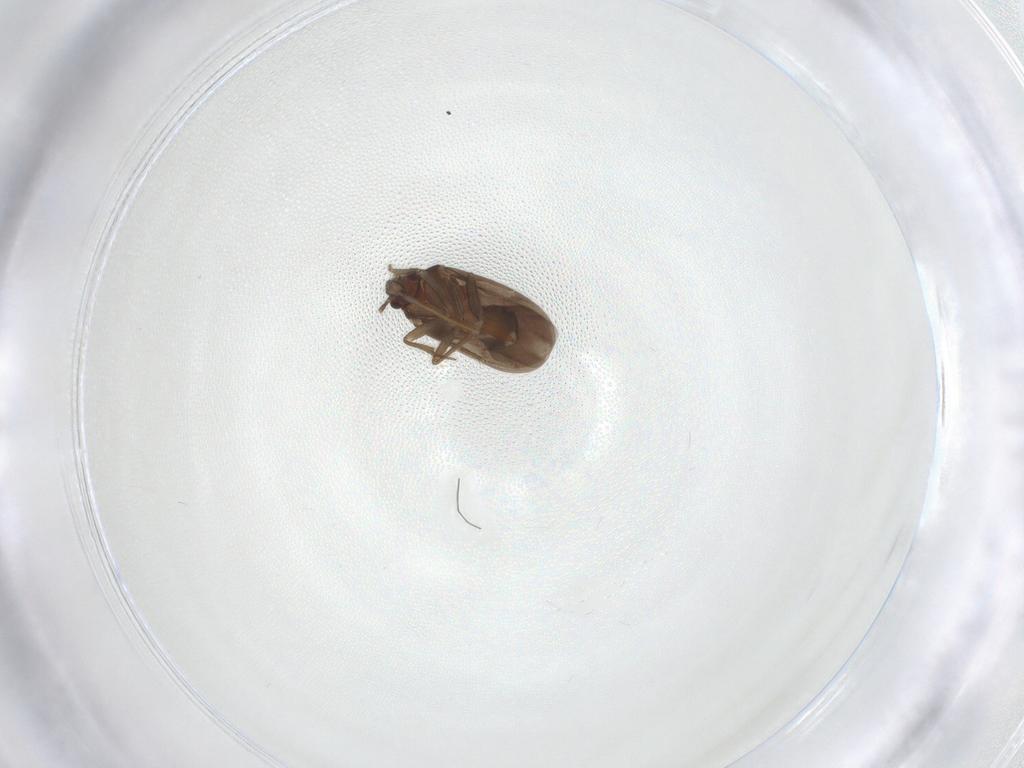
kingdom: Animalia
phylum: Arthropoda
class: Insecta
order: Hemiptera
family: Ceratocombidae
